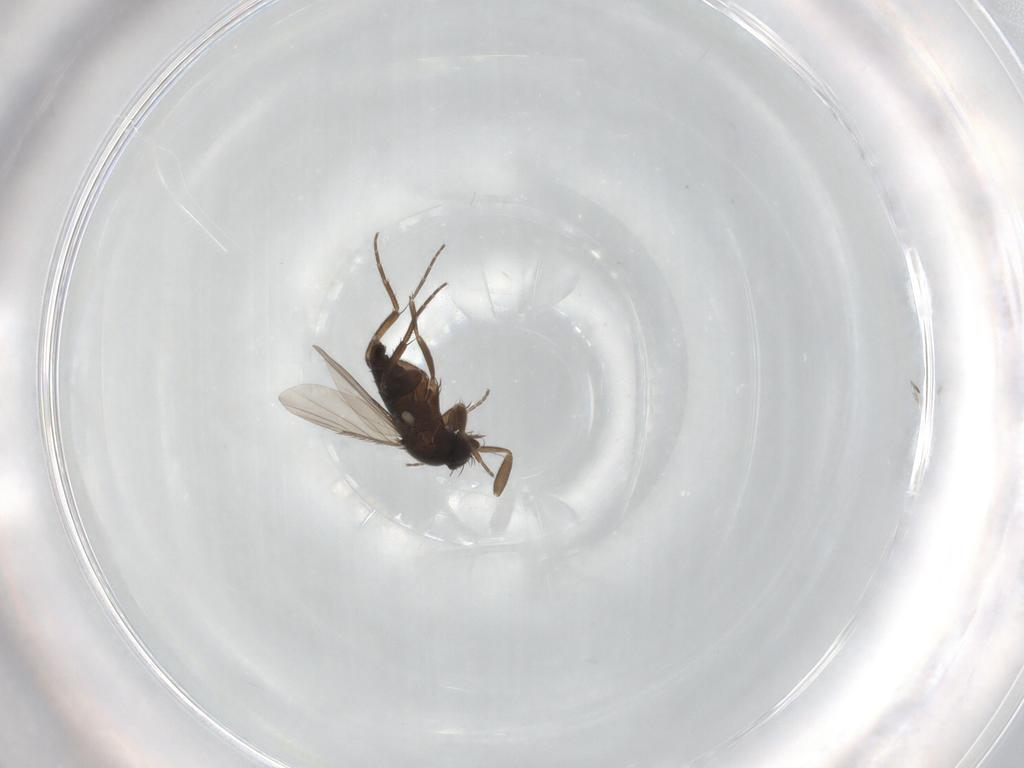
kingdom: Animalia
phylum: Arthropoda
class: Insecta
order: Diptera
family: Phoridae
